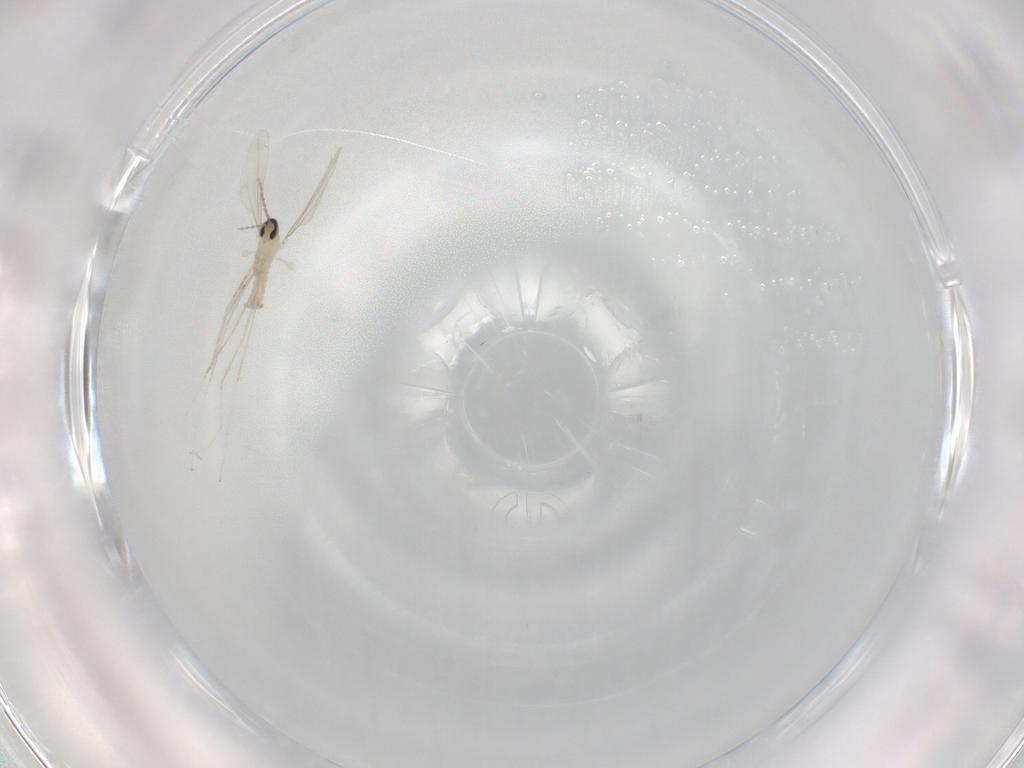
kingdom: Animalia
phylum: Arthropoda
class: Insecta
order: Diptera
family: Cecidomyiidae
